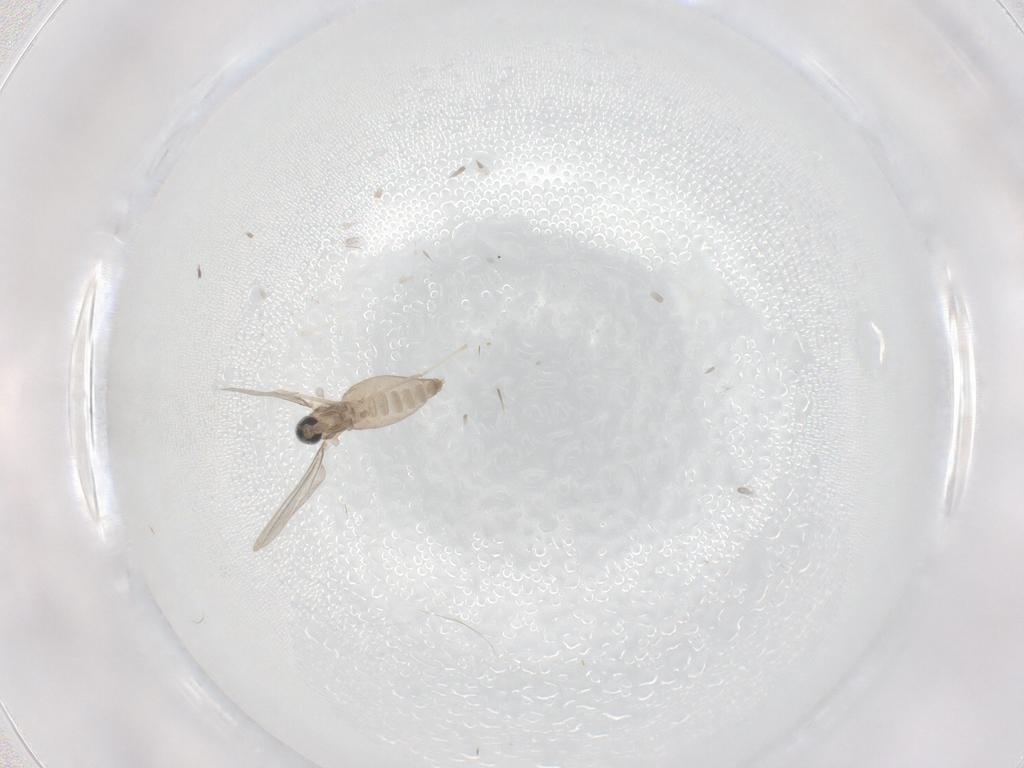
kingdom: Animalia
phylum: Arthropoda
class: Insecta
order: Diptera
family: Cecidomyiidae
